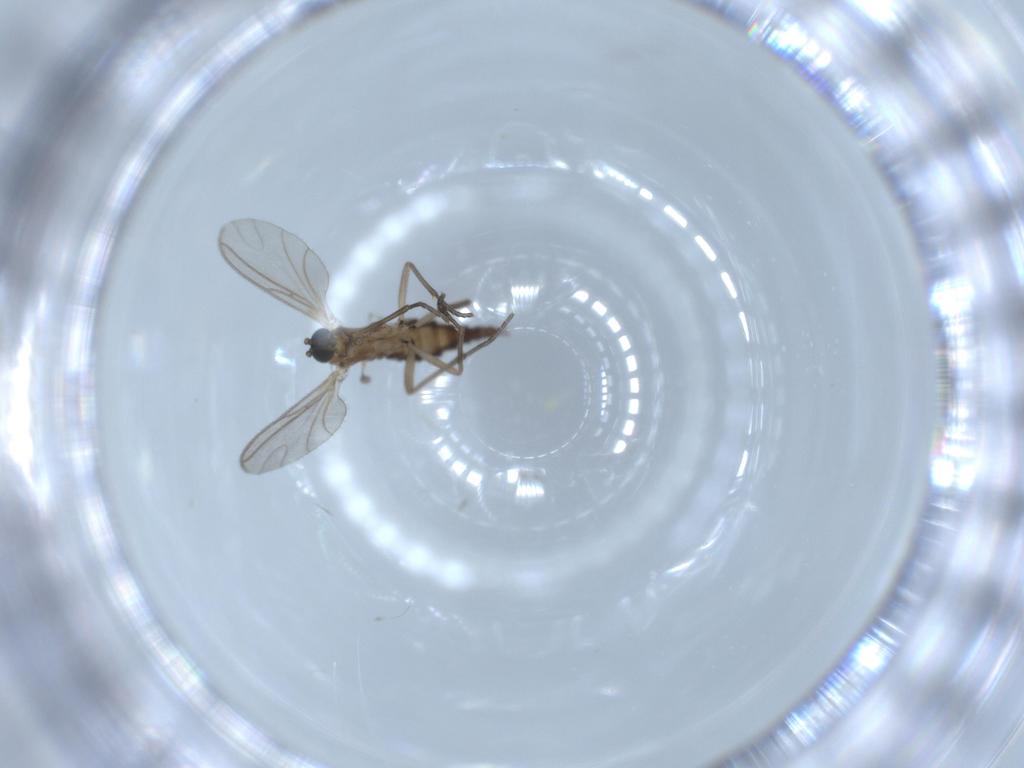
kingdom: Animalia
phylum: Arthropoda
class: Insecta
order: Diptera
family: Sciaridae
